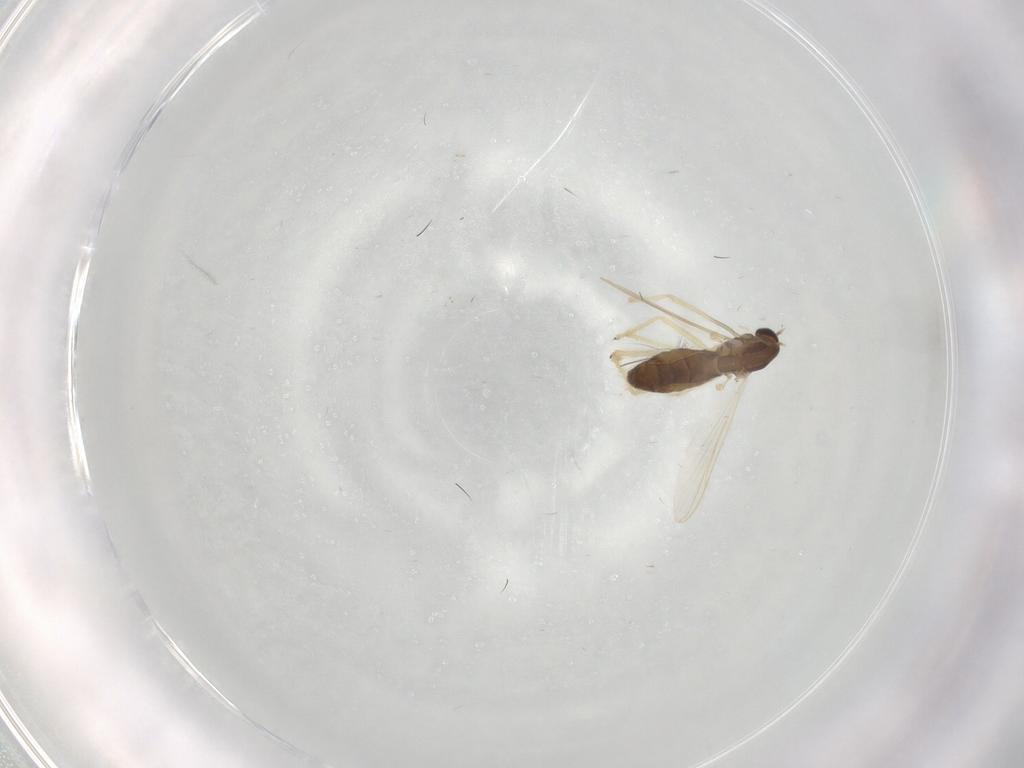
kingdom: Animalia
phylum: Arthropoda
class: Insecta
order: Diptera
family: Chironomidae
